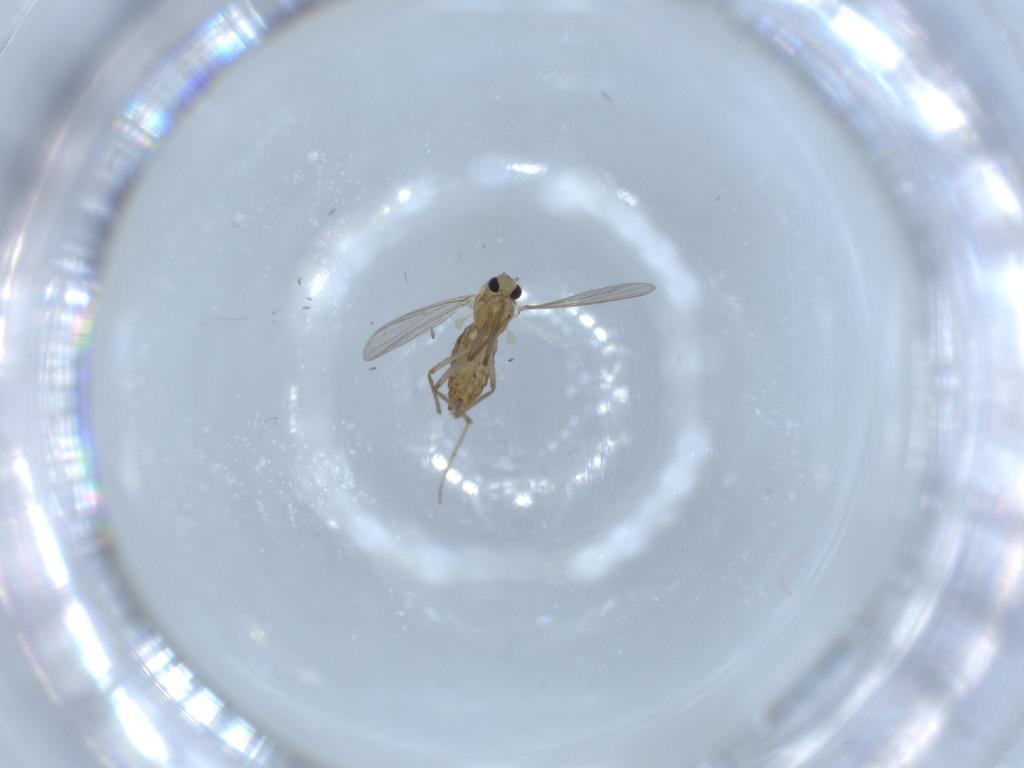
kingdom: Animalia
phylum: Arthropoda
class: Insecta
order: Diptera
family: Chironomidae
